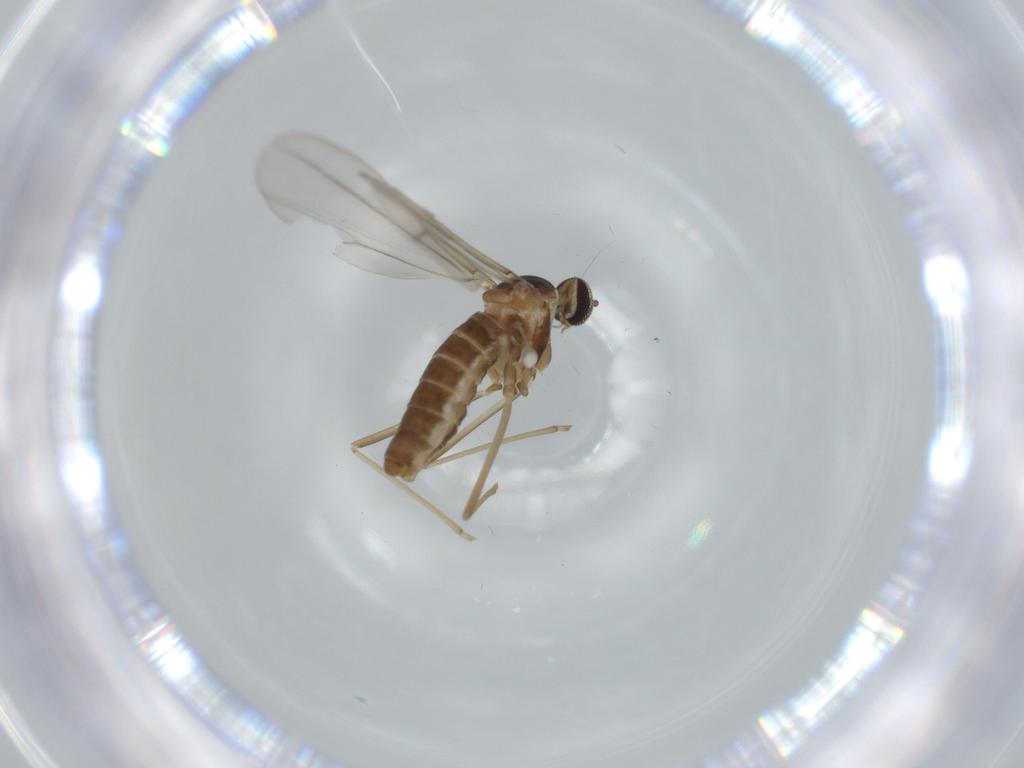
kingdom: Animalia
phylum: Arthropoda
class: Insecta
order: Diptera
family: Cecidomyiidae
